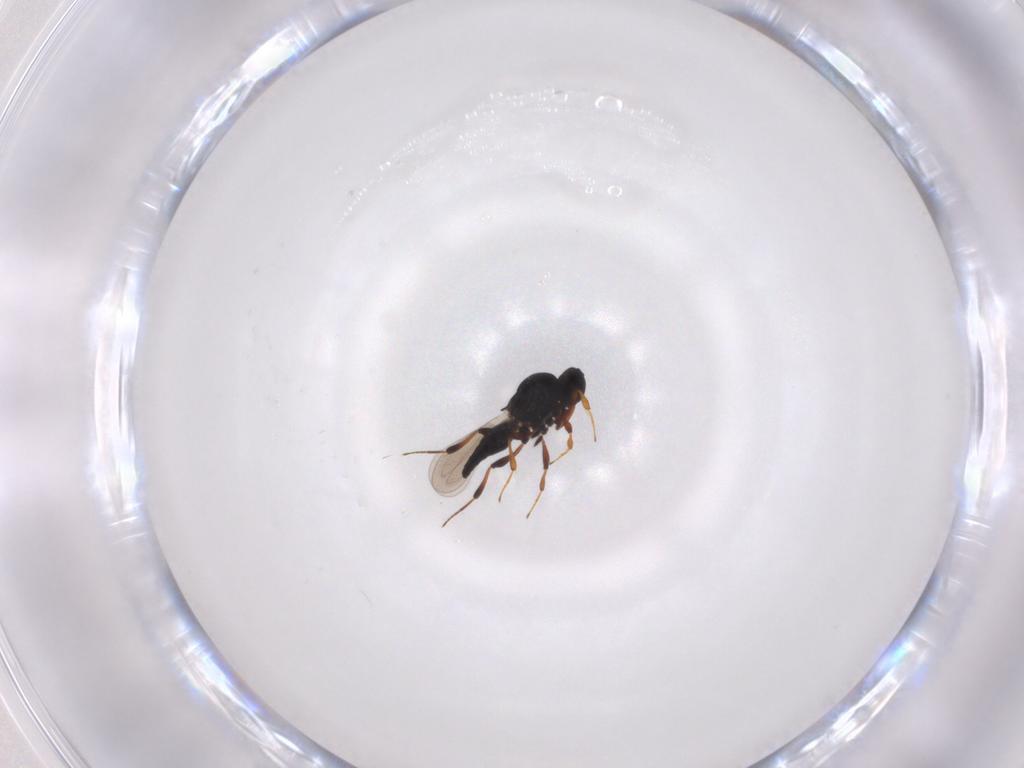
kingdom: Animalia
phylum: Arthropoda
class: Insecta
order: Hymenoptera
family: Platygastridae
